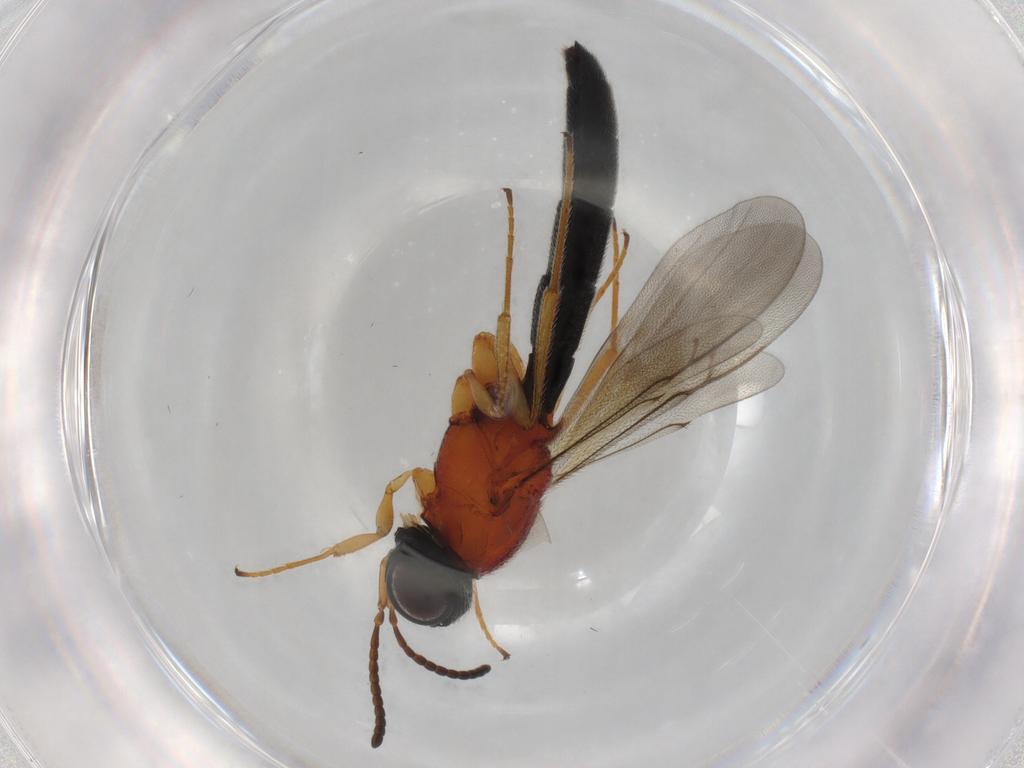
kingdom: Animalia
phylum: Arthropoda
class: Insecta
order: Hymenoptera
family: Scelionidae
